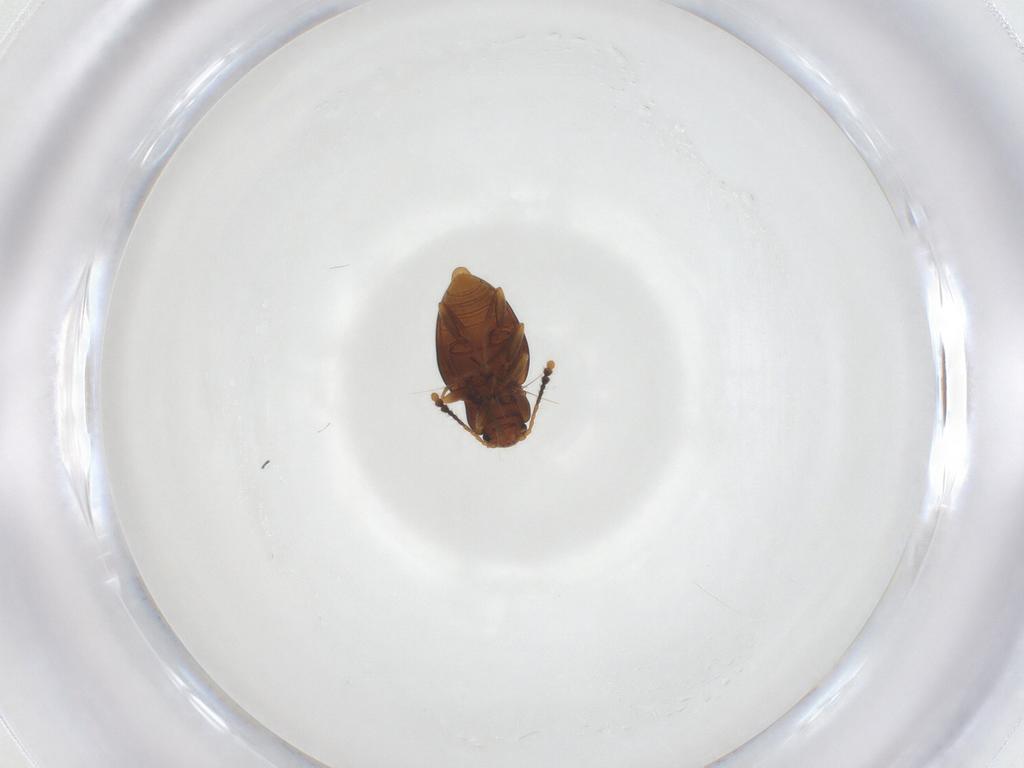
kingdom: Animalia
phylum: Arthropoda
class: Insecta
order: Coleoptera
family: Erotylidae
